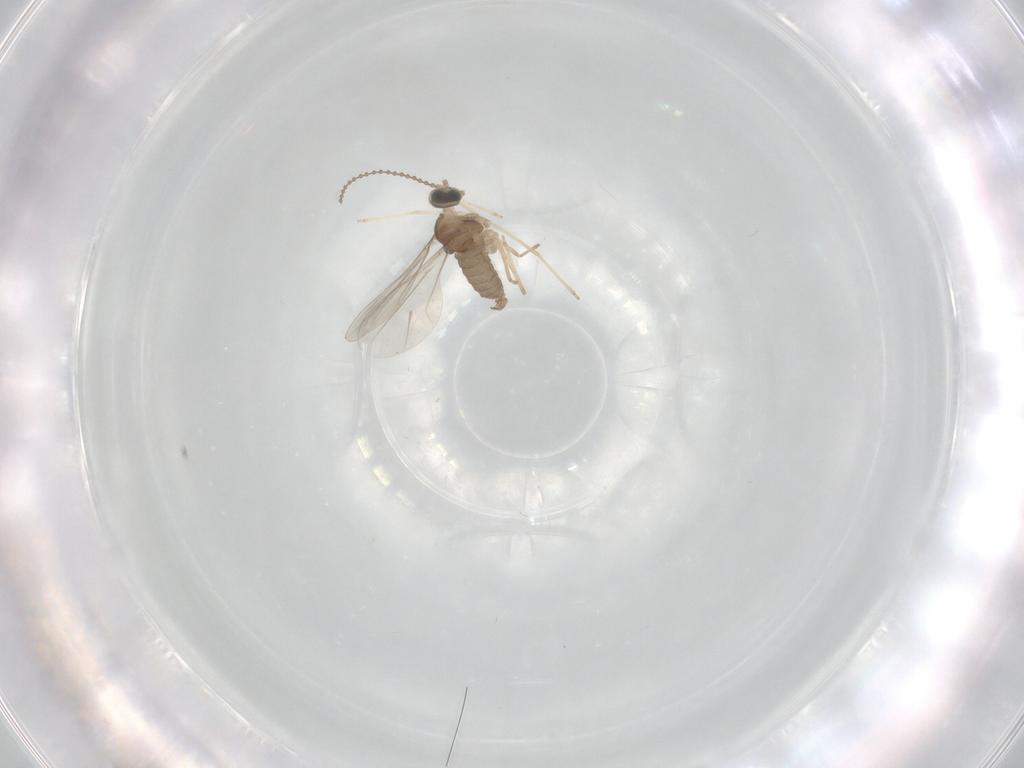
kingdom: Animalia
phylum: Arthropoda
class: Insecta
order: Diptera
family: Cecidomyiidae
